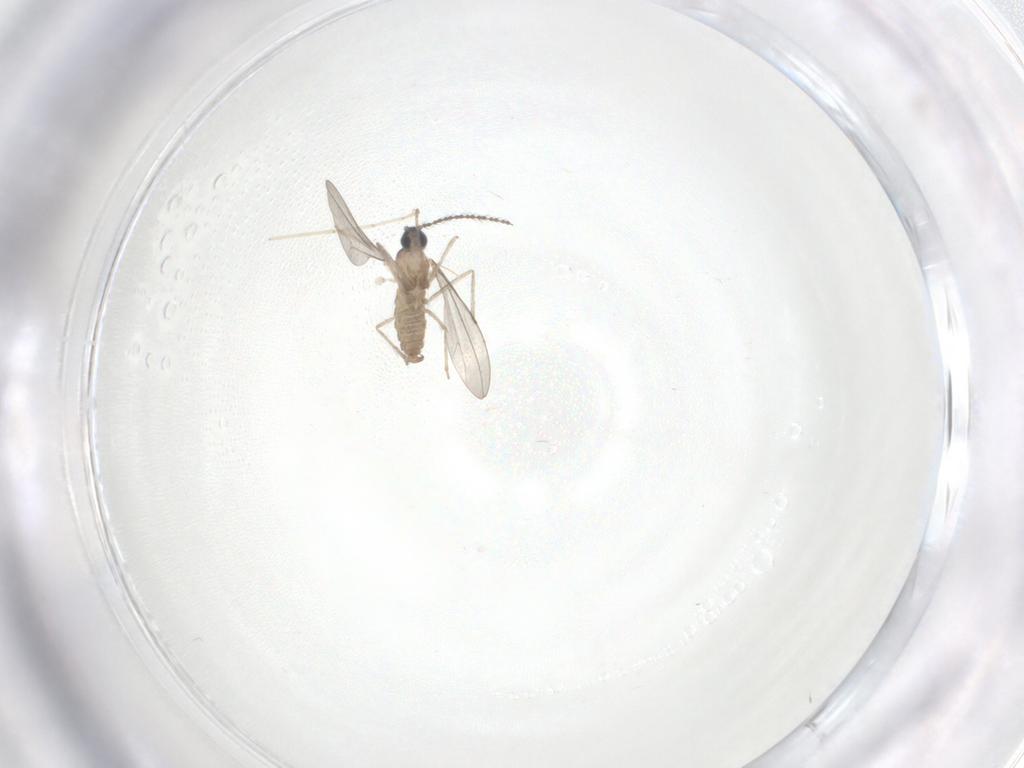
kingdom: Animalia
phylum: Arthropoda
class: Insecta
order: Diptera
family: Cecidomyiidae
